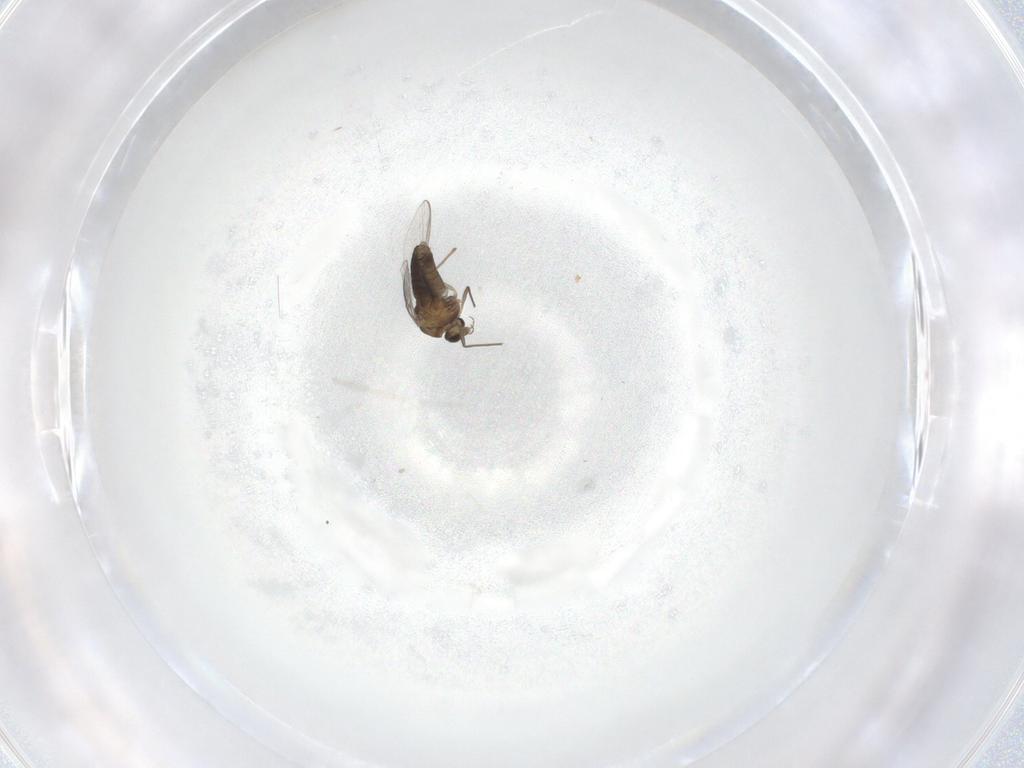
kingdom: Animalia
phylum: Arthropoda
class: Insecta
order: Diptera
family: Chironomidae
